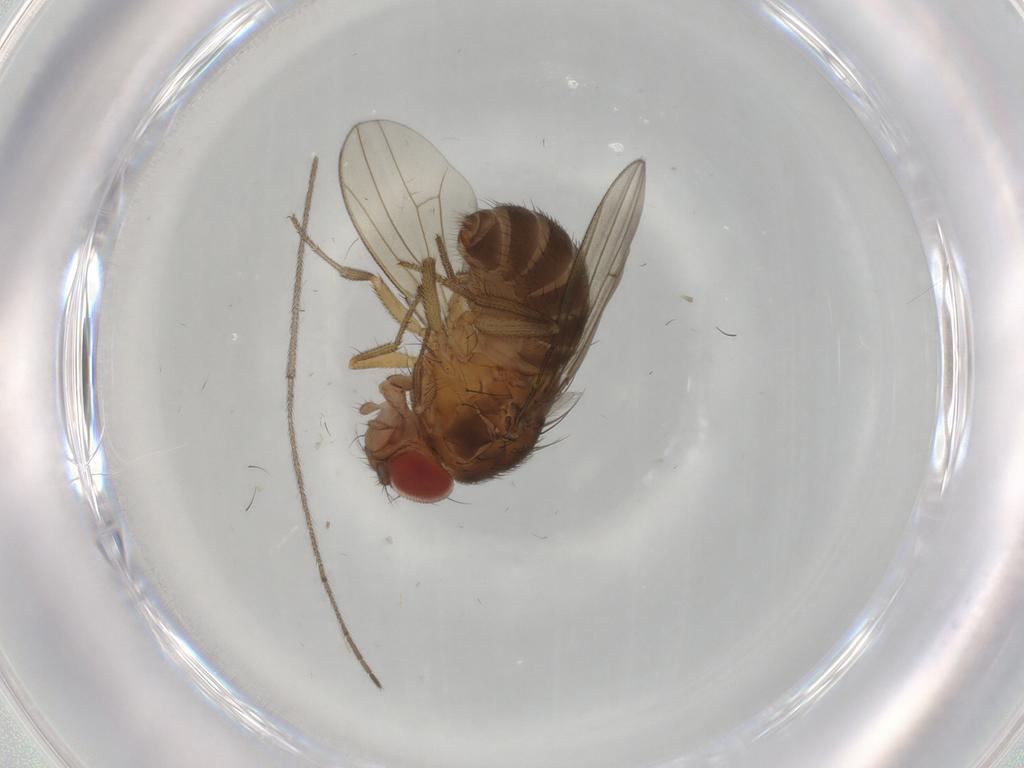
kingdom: Animalia
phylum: Arthropoda
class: Insecta
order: Diptera
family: Drosophilidae
